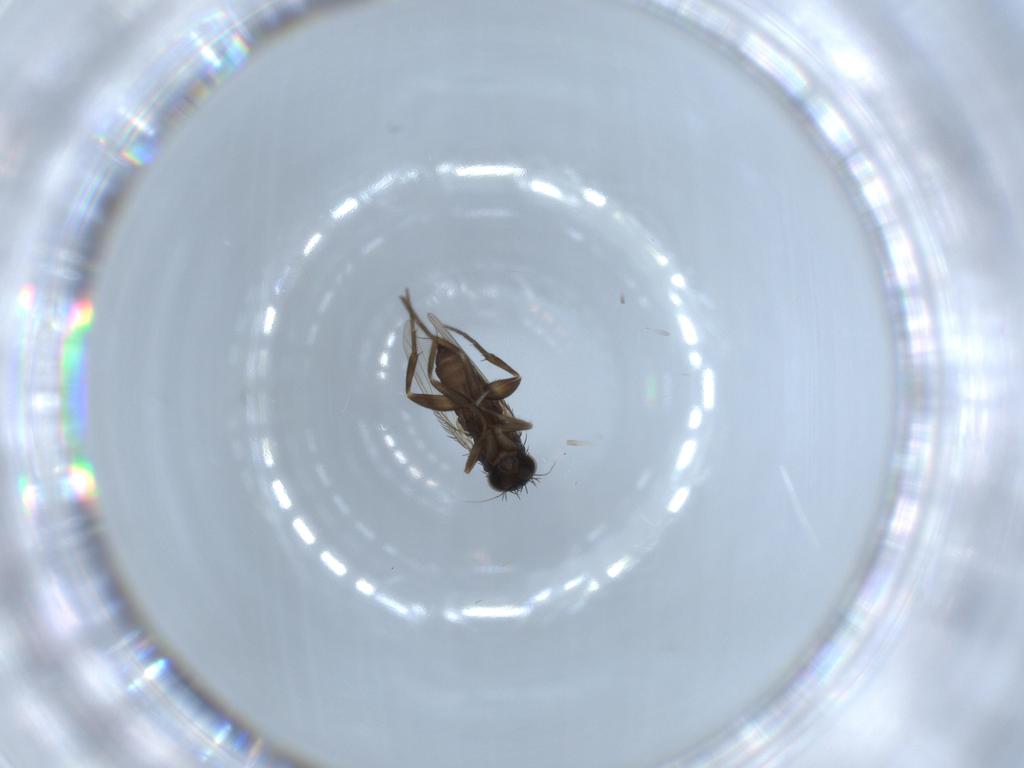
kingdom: Animalia
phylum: Arthropoda
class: Insecta
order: Diptera
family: Phoridae
